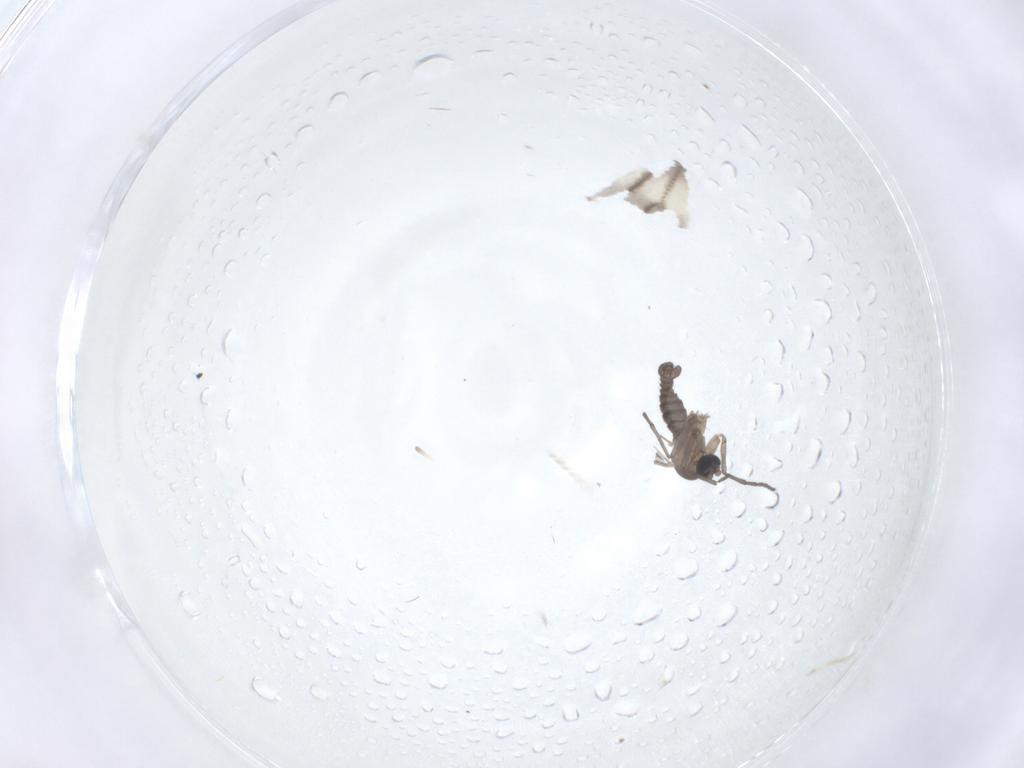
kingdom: Animalia
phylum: Arthropoda
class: Insecta
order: Diptera
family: Sciaridae
